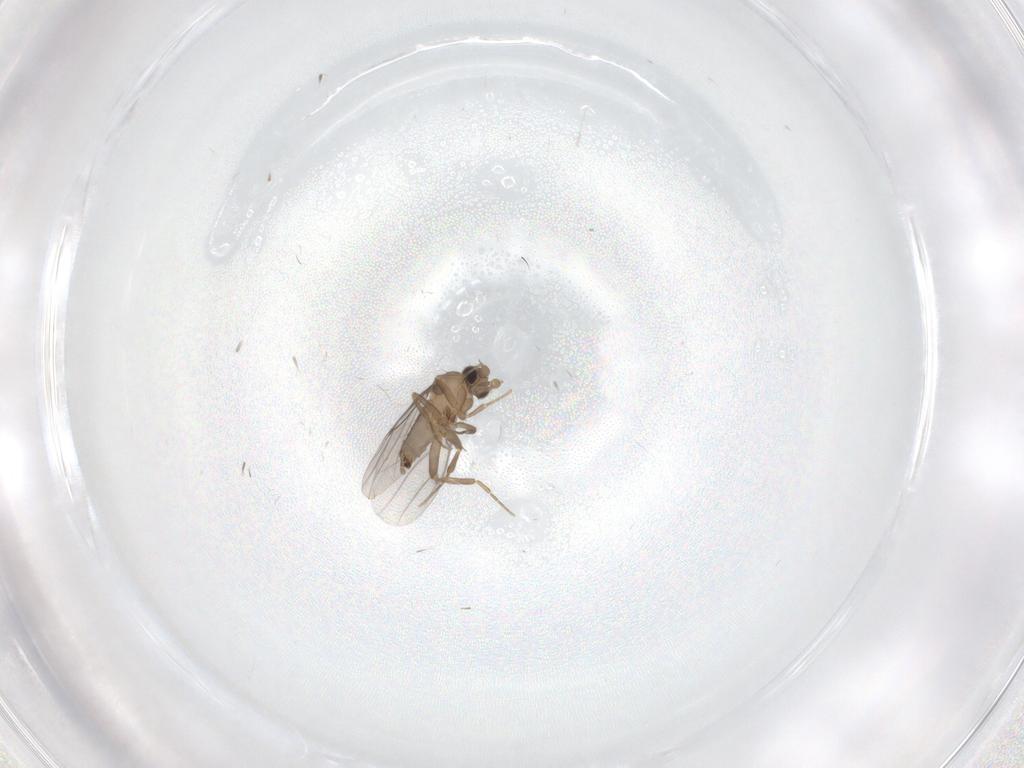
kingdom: Animalia
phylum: Arthropoda
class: Insecta
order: Diptera
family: Sciaridae
